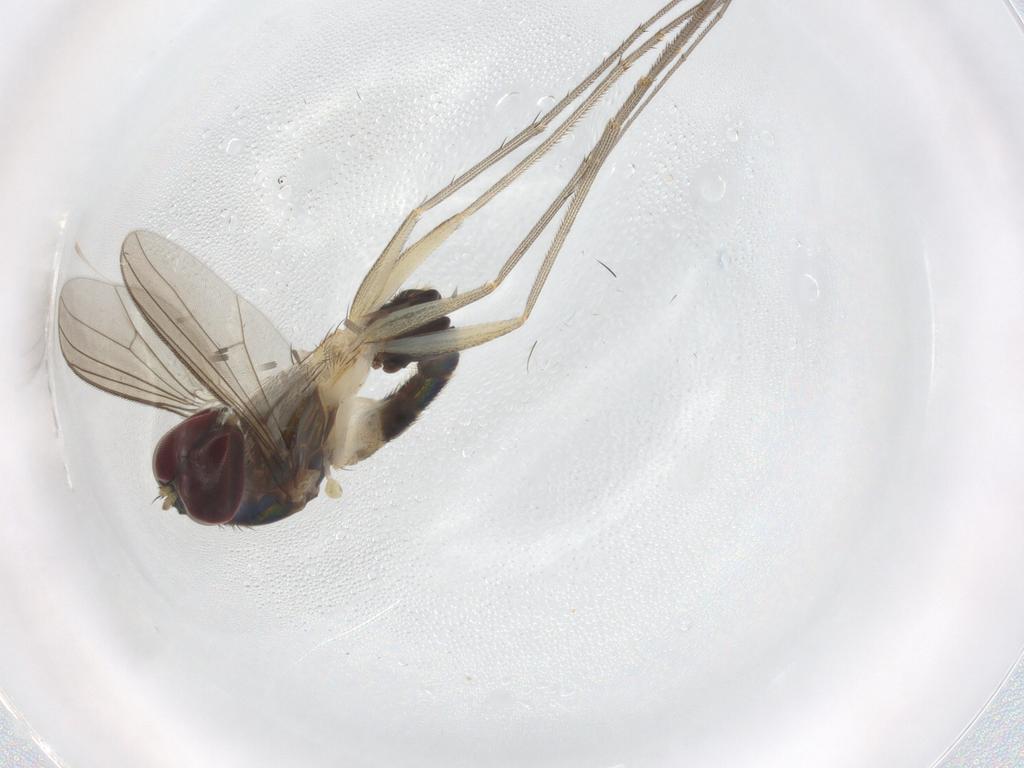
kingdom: Animalia
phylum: Arthropoda
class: Insecta
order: Diptera
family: Dolichopodidae
